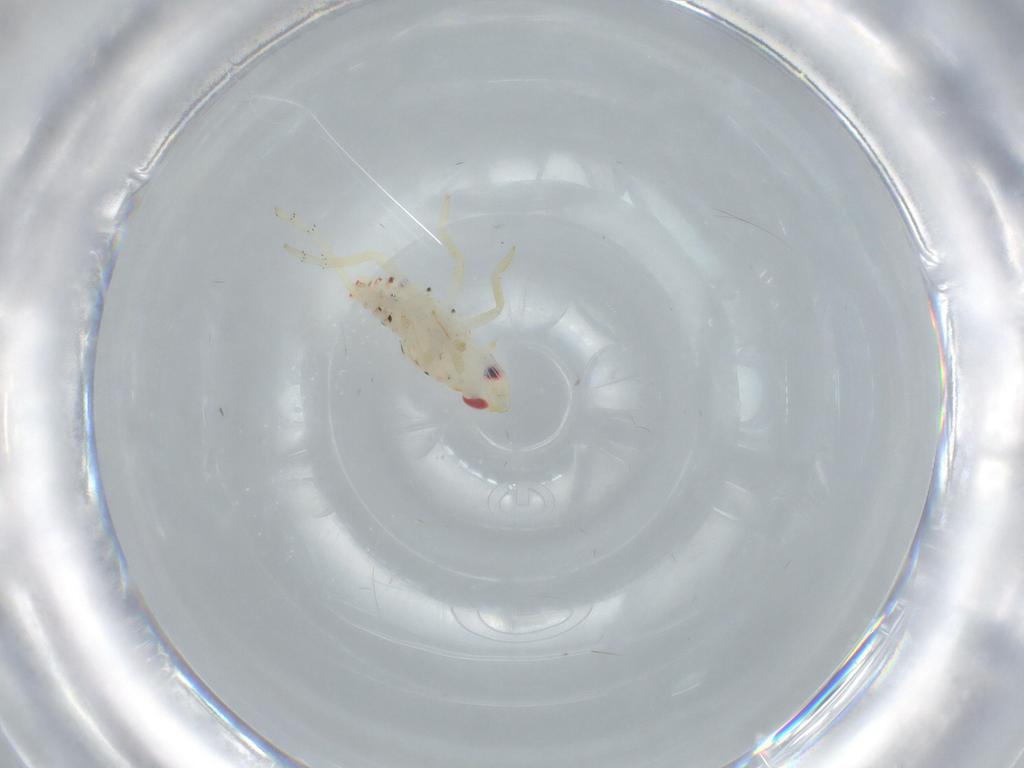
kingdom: Animalia
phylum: Arthropoda
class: Insecta
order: Hemiptera
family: Tropiduchidae
